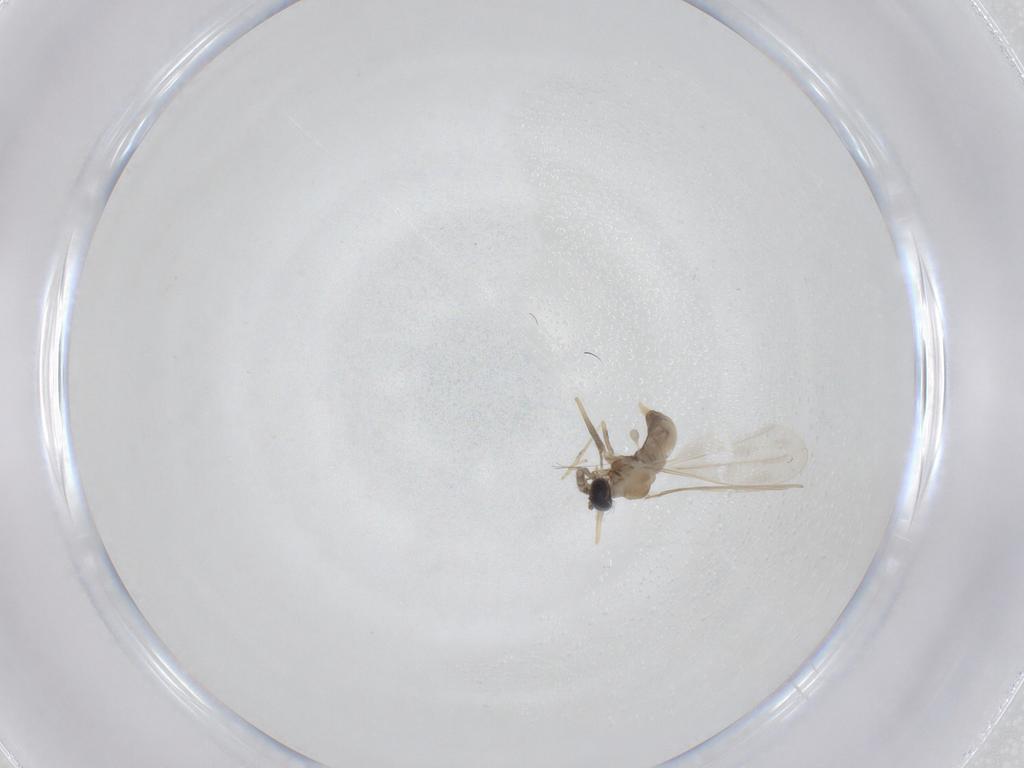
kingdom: Animalia
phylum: Arthropoda
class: Insecta
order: Diptera
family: Cecidomyiidae
